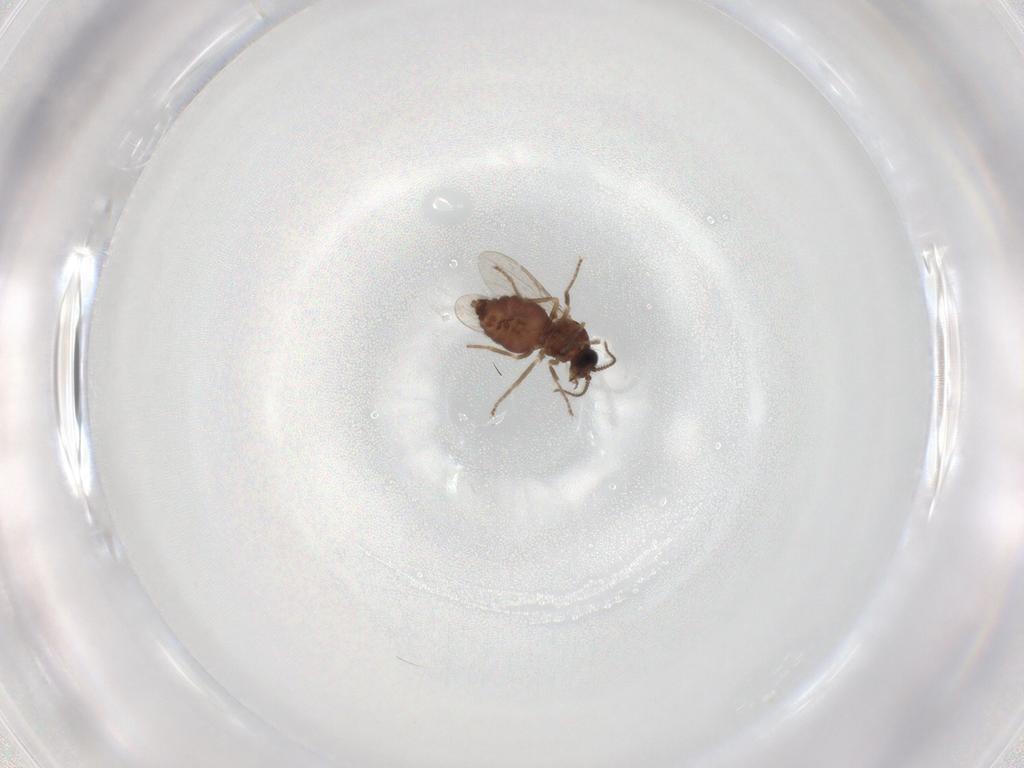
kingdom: Animalia
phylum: Arthropoda
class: Insecta
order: Diptera
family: Ceratopogonidae
